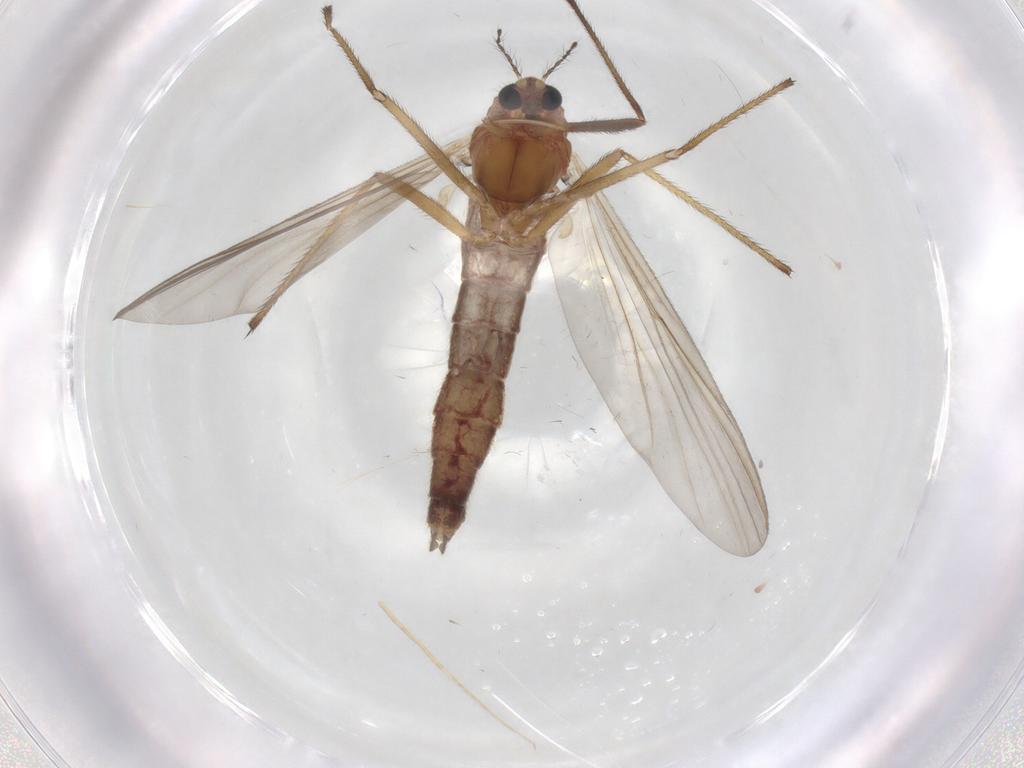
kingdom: Animalia
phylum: Arthropoda
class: Insecta
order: Diptera
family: Chironomidae
